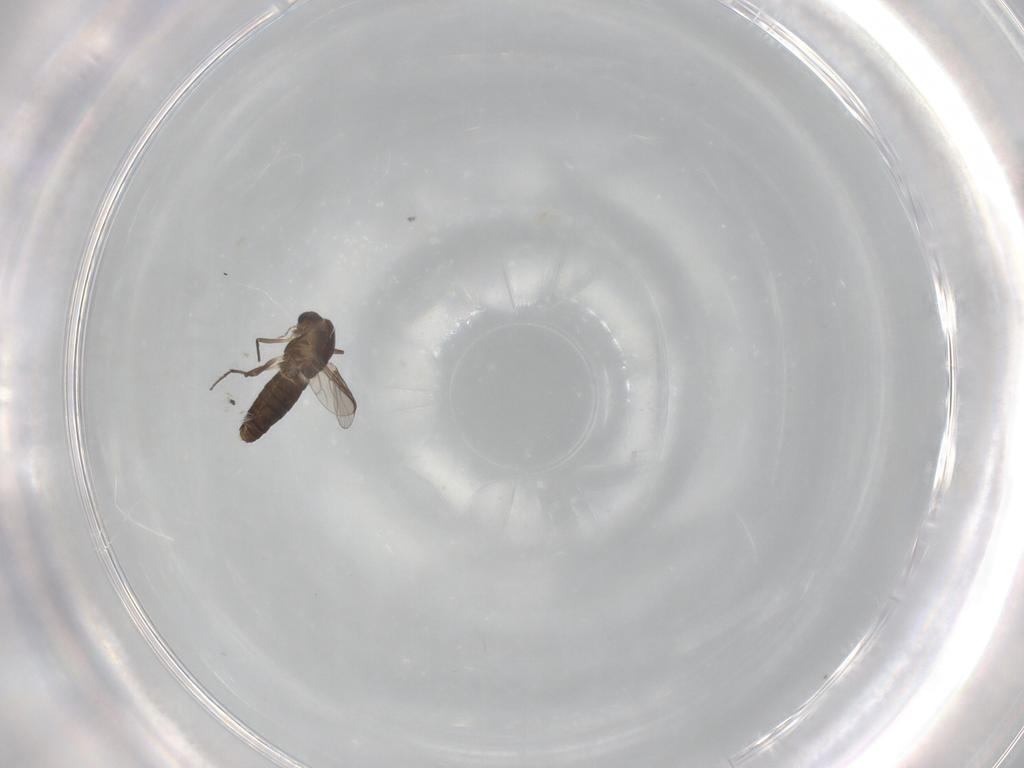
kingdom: Animalia
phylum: Arthropoda
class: Insecta
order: Diptera
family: Chironomidae
